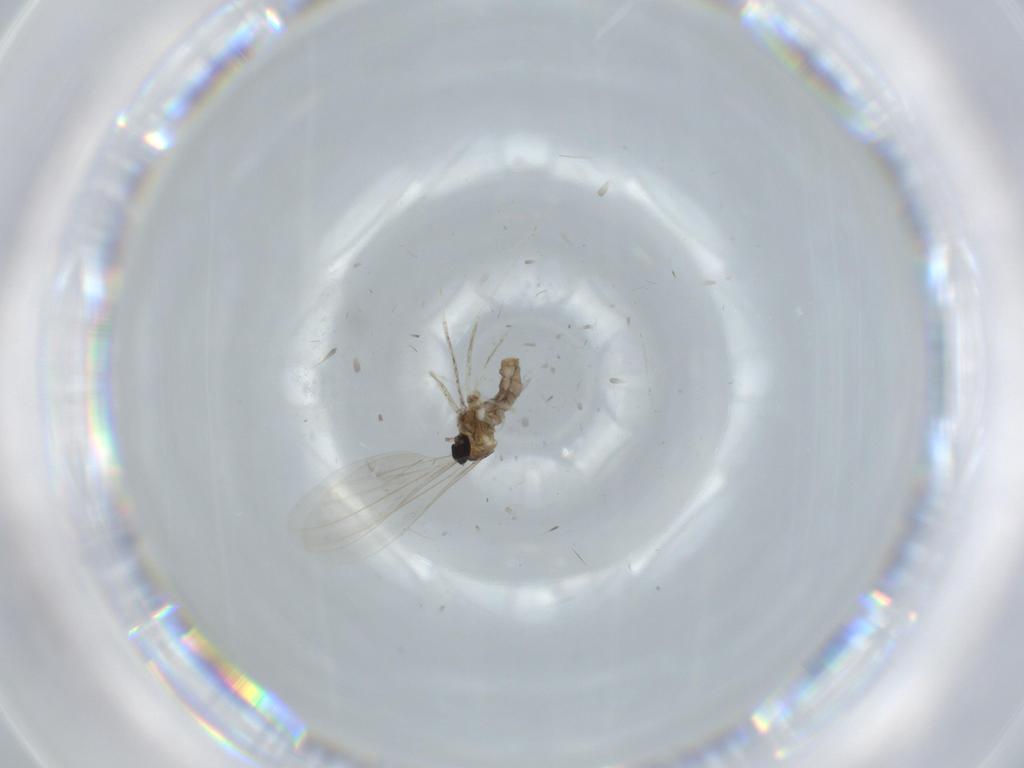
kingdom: Animalia
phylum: Arthropoda
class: Insecta
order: Diptera
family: Cecidomyiidae
